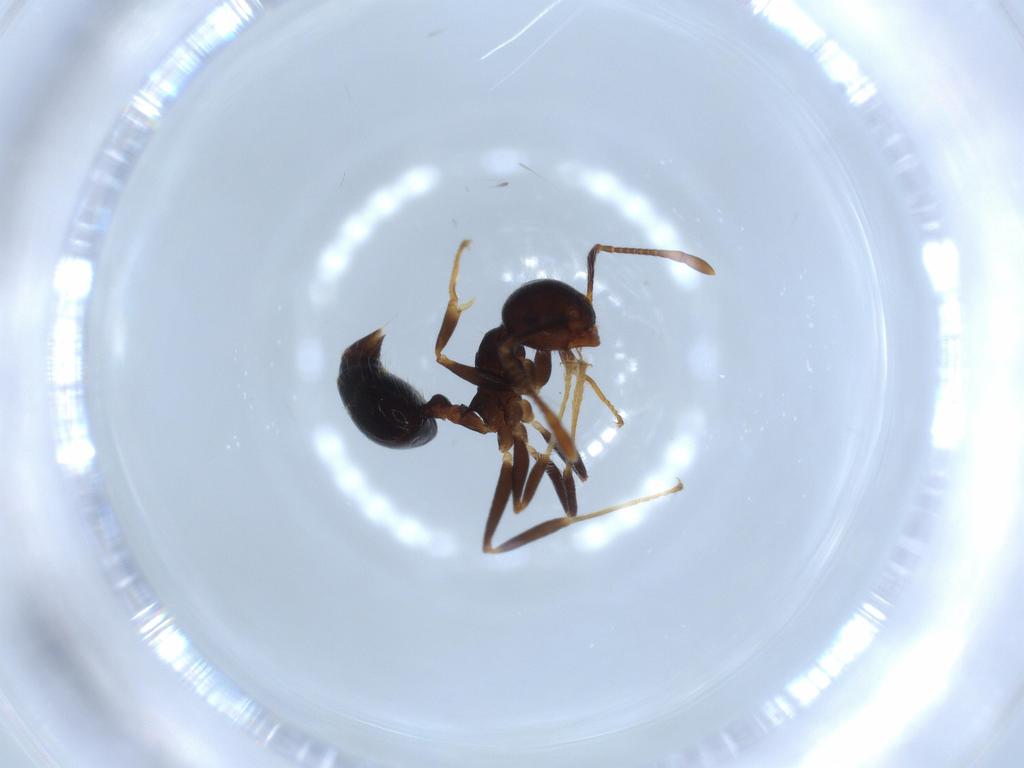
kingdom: Animalia
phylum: Arthropoda
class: Insecta
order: Hymenoptera
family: Formicidae
